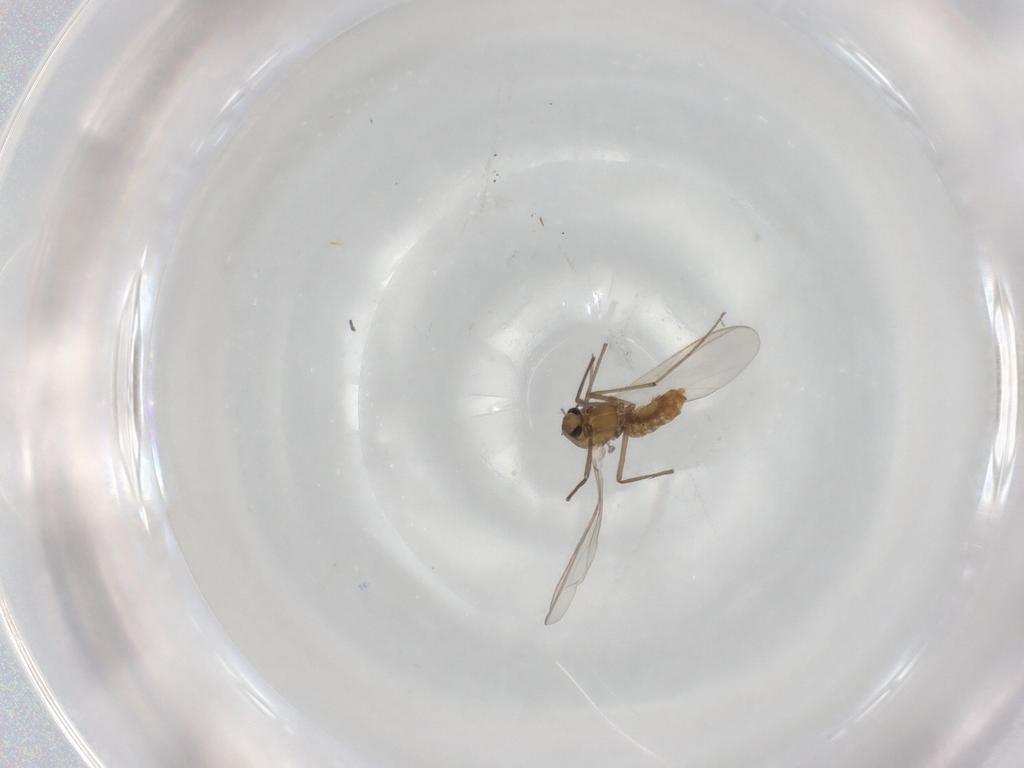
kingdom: Animalia
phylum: Arthropoda
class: Insecta
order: Diptera
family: Chironomidae
